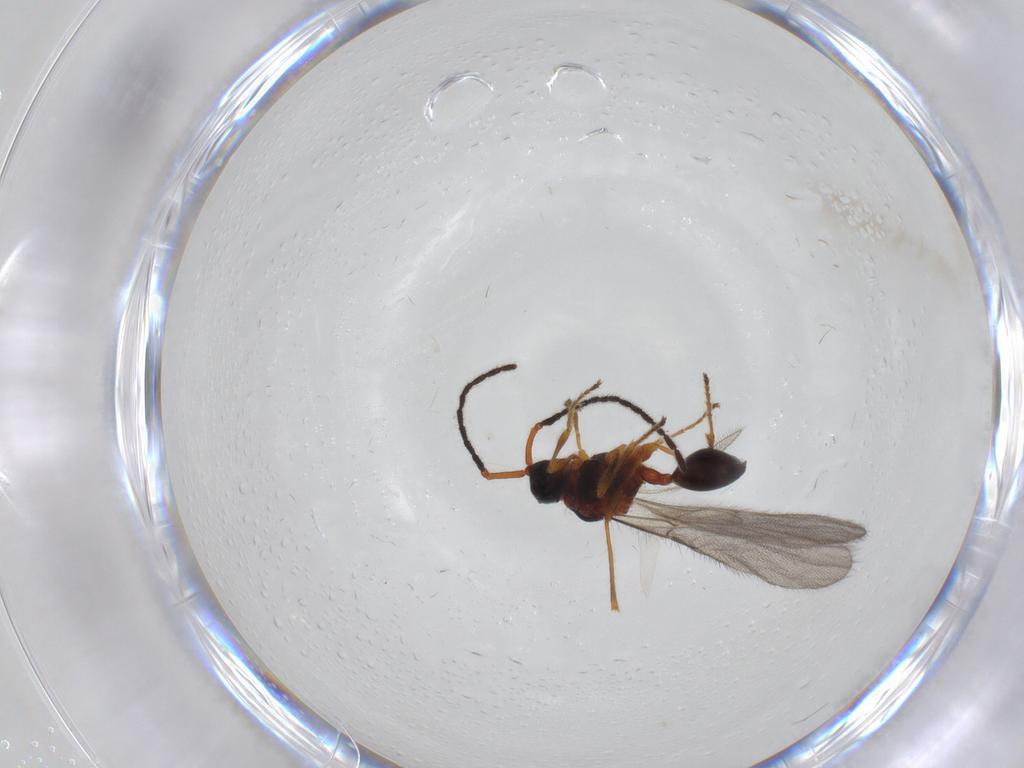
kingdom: Animalia
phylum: Arthropoda
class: Insecta
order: Hymenoptera
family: Diapriidae
